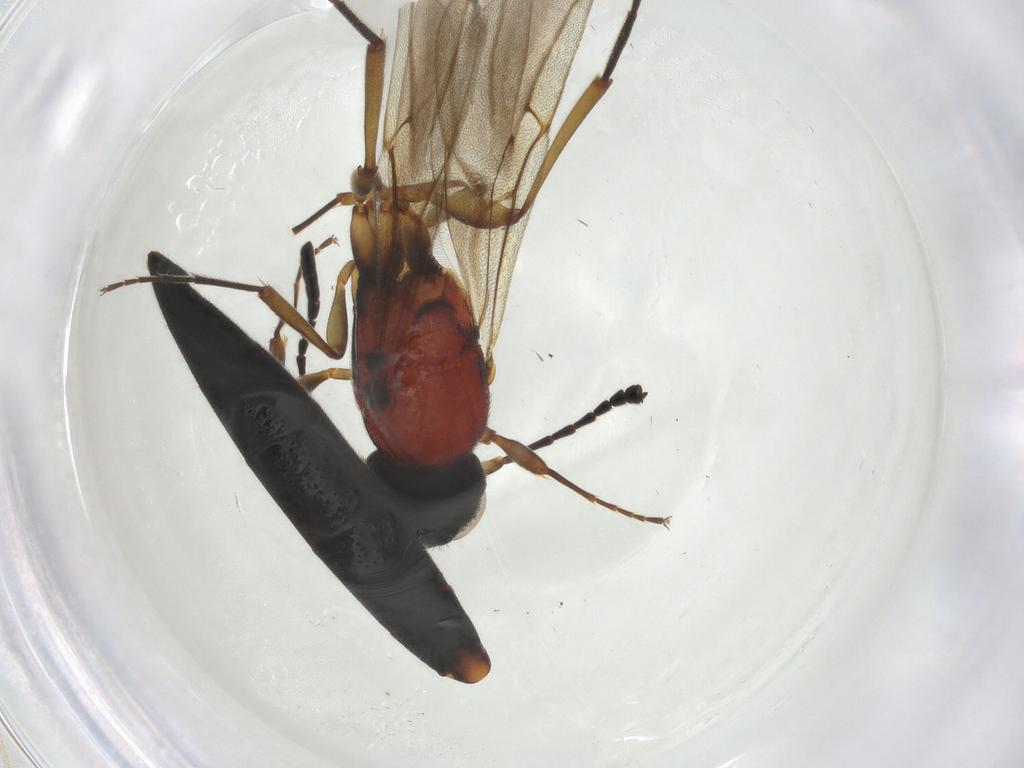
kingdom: Animalia
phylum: Arthropoda
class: Insecta
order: Hymenoptera
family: Scelionidae
